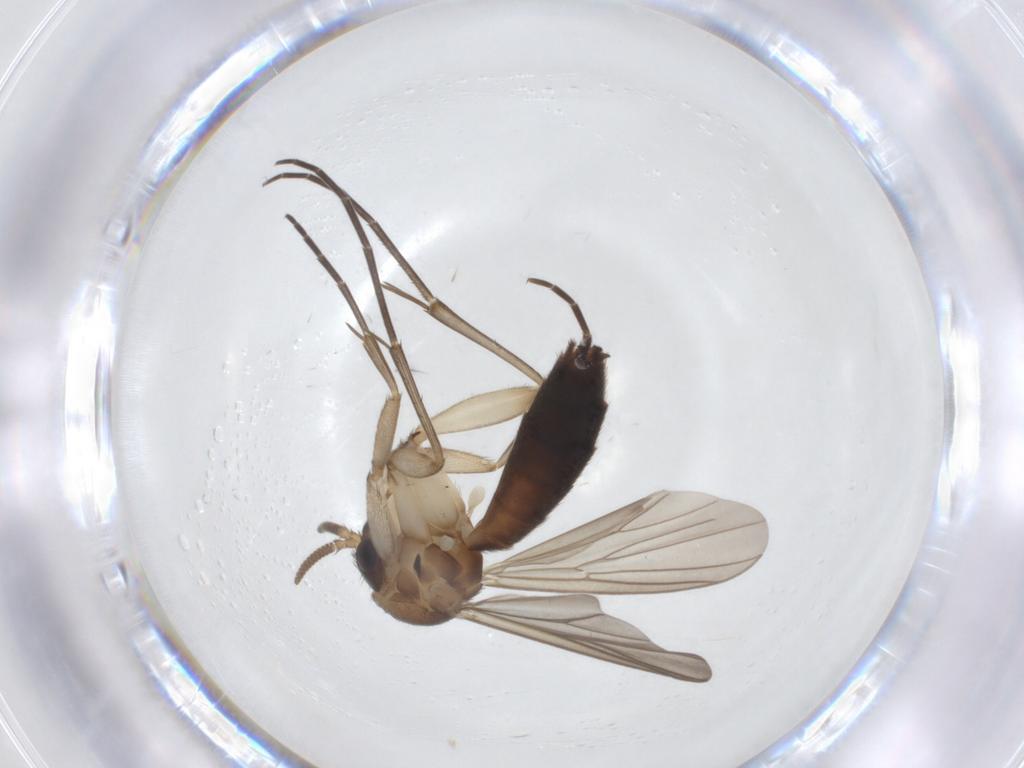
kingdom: Animalia
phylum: Arthropoda
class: Insecta
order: Diptera
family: Mycetophilidae
